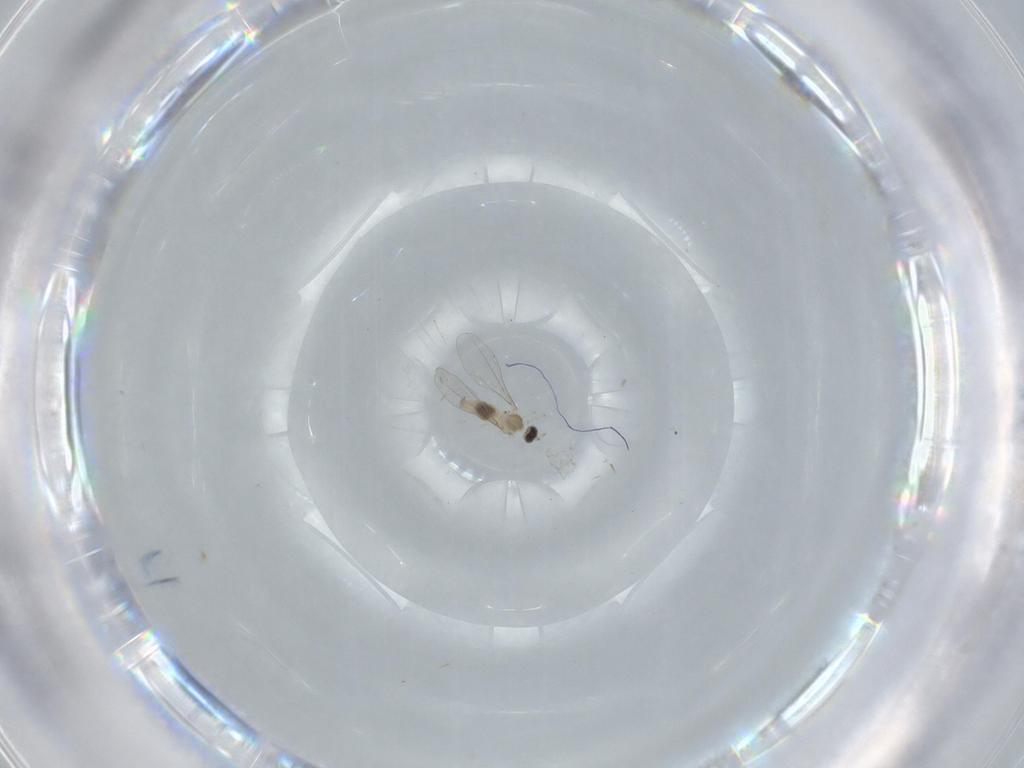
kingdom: Animalia
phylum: Arthropoda
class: Insecta
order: Diptera
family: Cecidomyiidae
